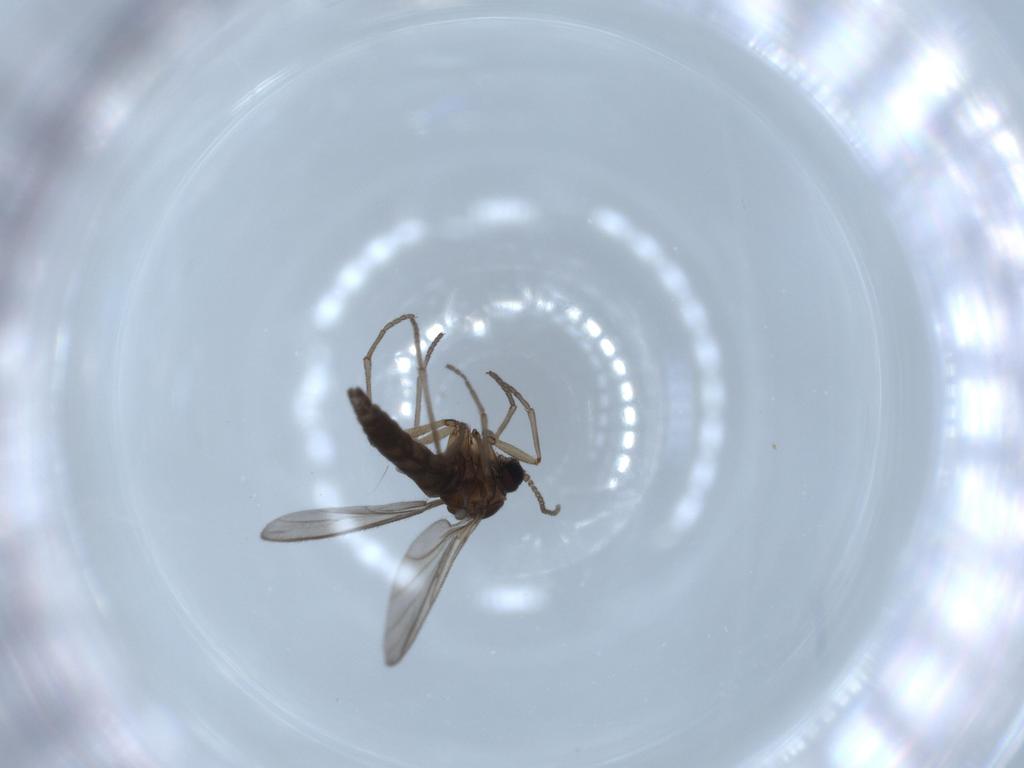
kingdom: Animalia
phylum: Arthropoda
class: Insecta
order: Diptera
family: Sciaridae
